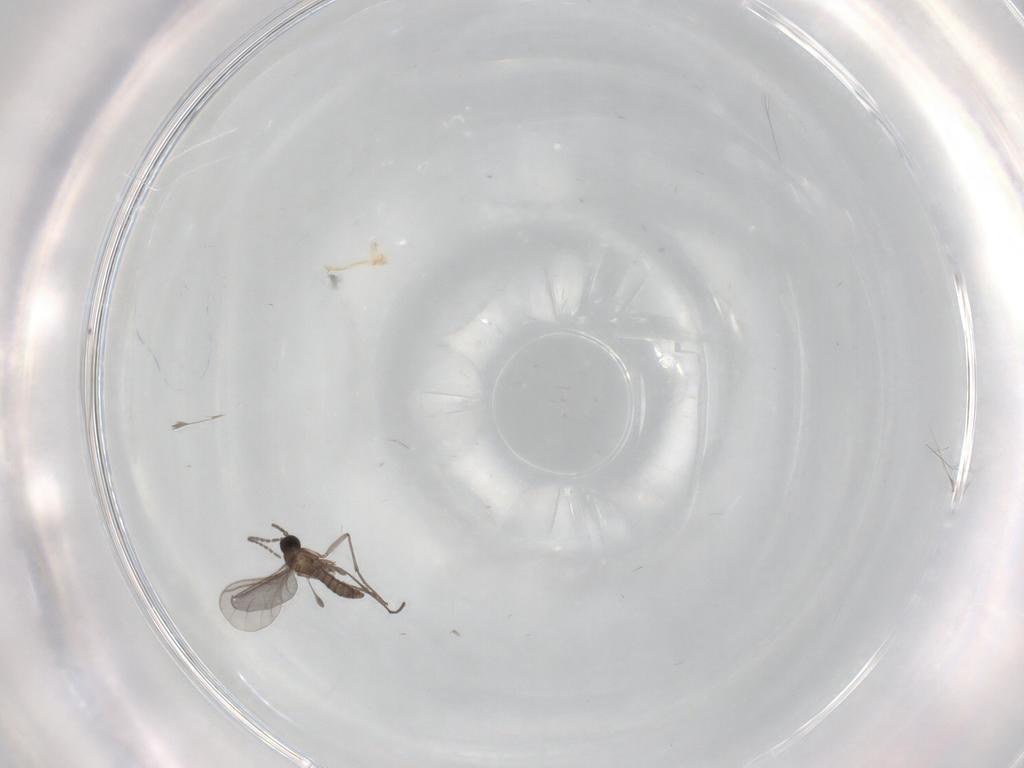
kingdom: Animalia
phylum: Arthropoda
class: Insecta
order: Diptera
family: Sciaridae
